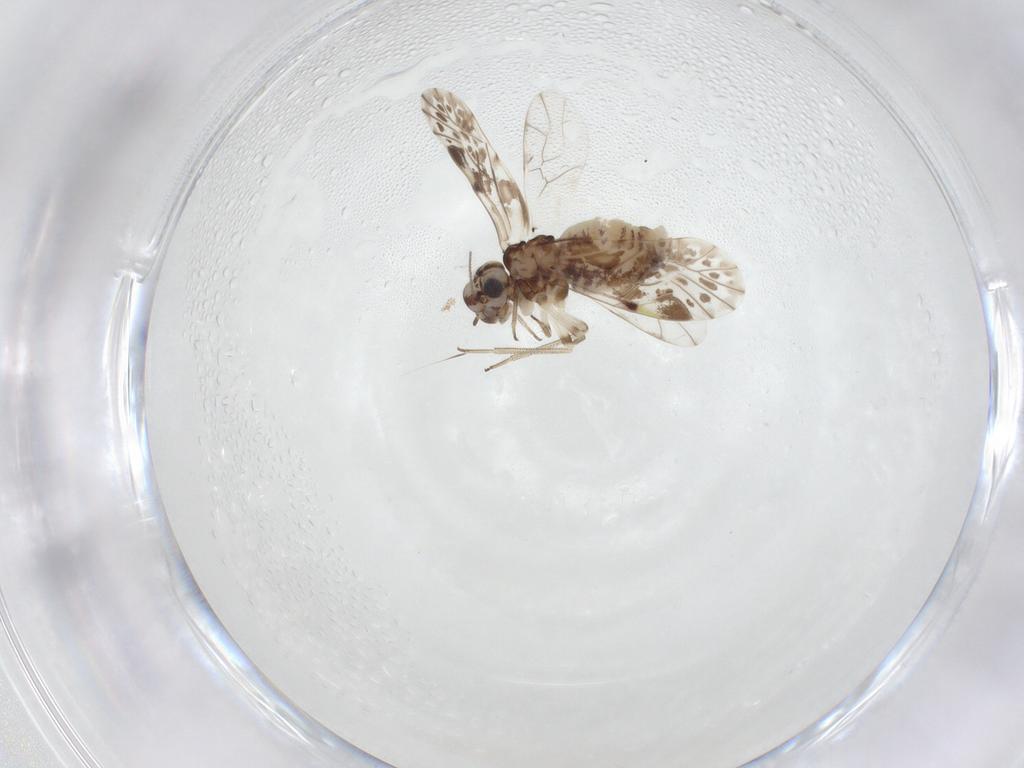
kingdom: Animalia
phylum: Arthropoda
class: Insecta
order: Psocodea
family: Psocidae
